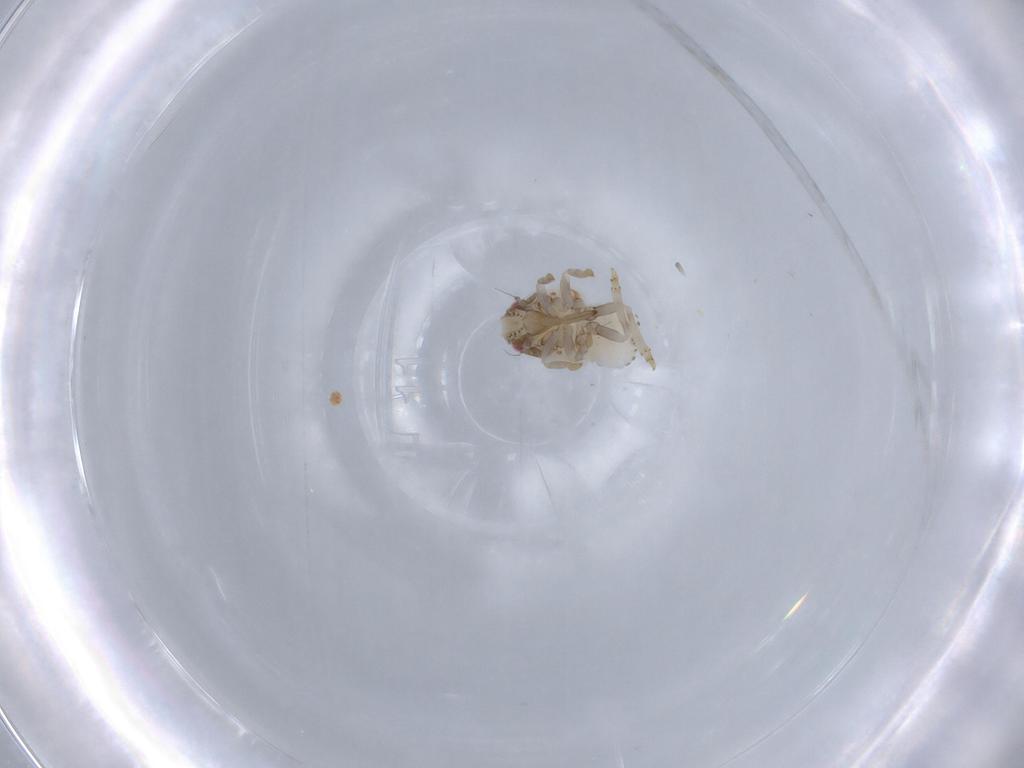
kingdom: Animalia
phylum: Arthropoda
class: Insecta
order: Hemiptera
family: Acanaloniidae
